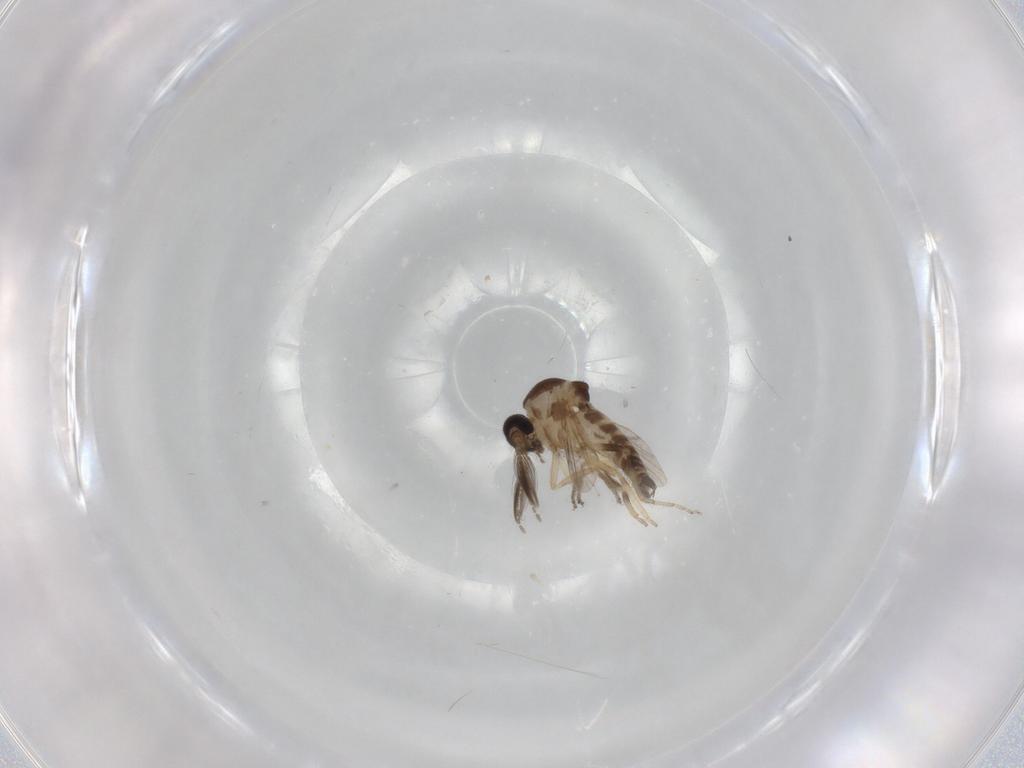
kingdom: Animalia
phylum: Arthropoda
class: Insecta
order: Diptera
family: Ceratopogonidae
